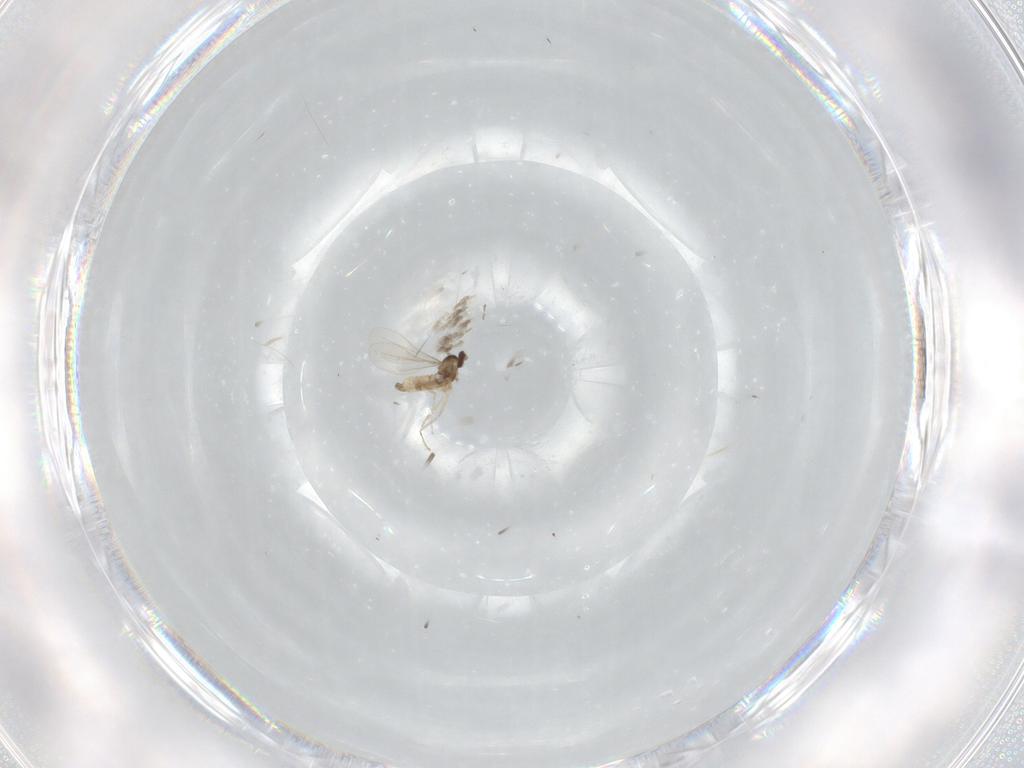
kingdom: Animalia
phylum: Arthropoda
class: Insecta
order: Diptera
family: Cecidomyiidae
